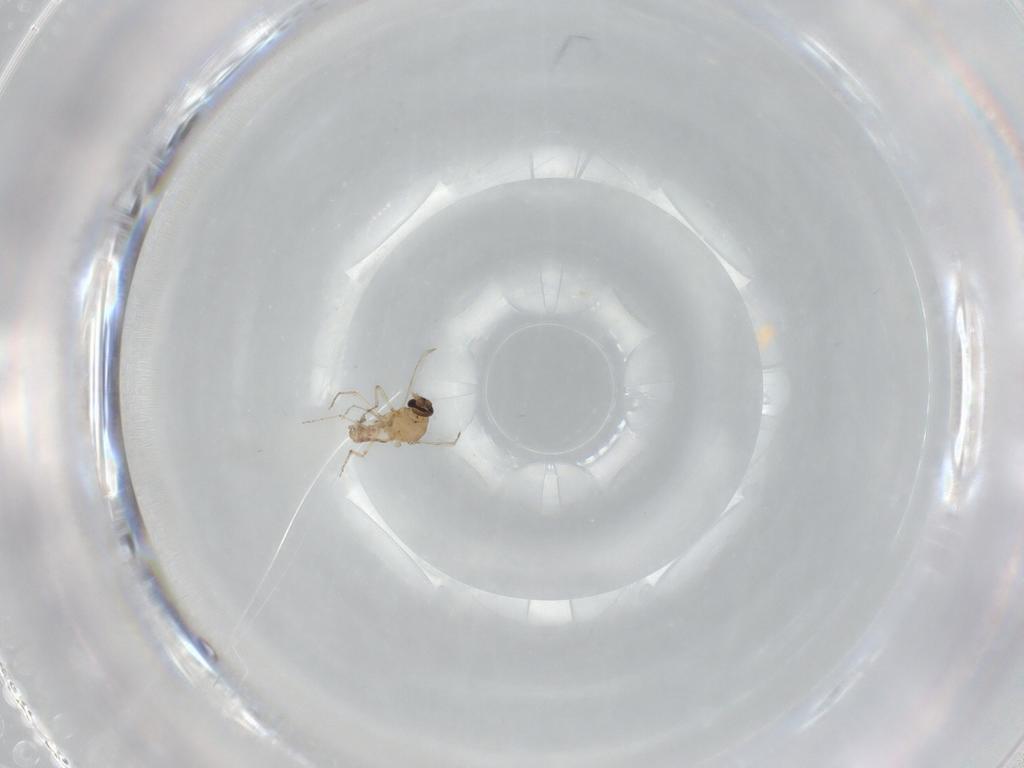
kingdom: Animalia
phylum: Arthropoda
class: Insecta
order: Diptera
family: Ceratopogonidae
